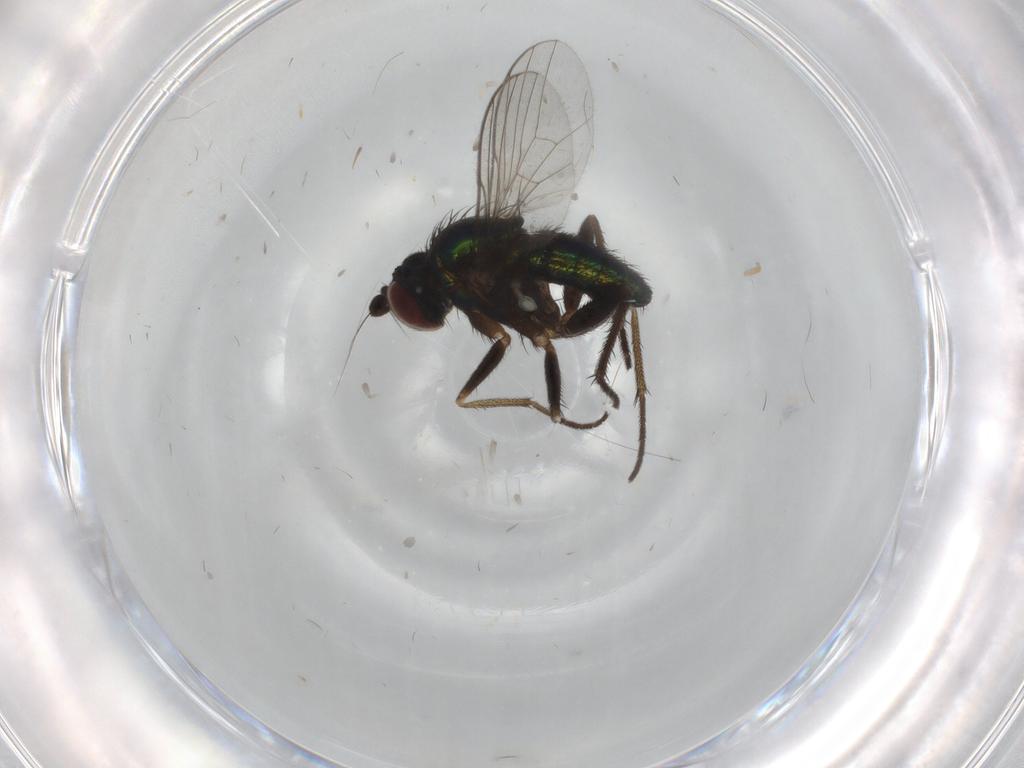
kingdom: Animalia
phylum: Arthropoda
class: Insecta
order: Diptera
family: Dolichopodidae
